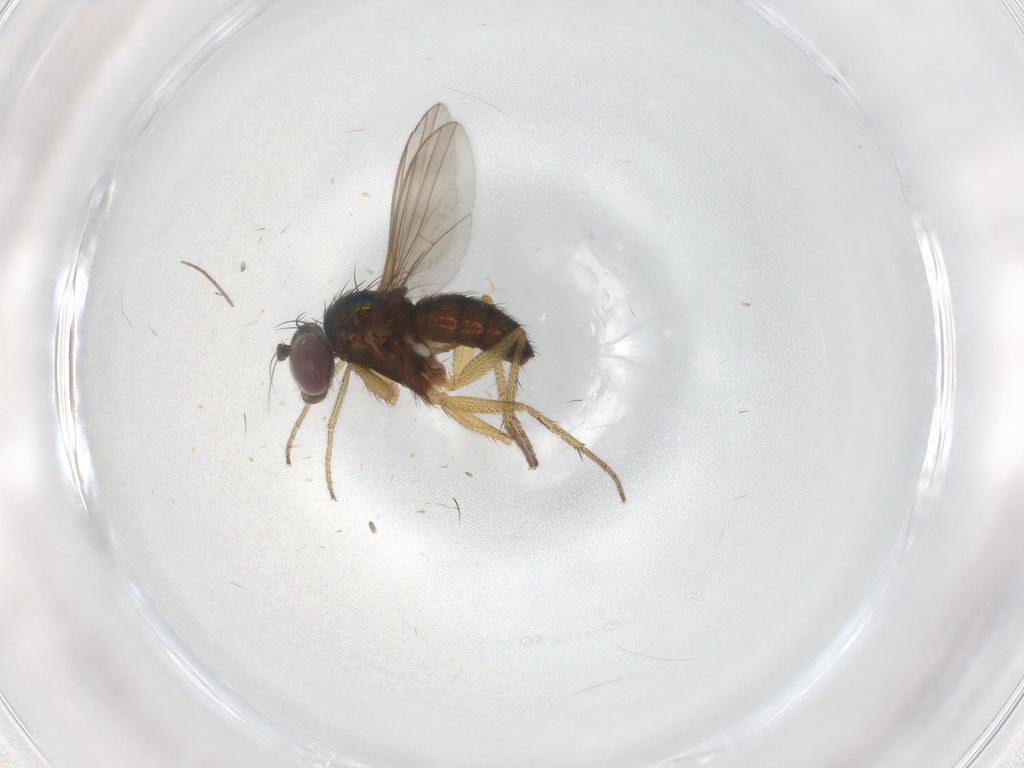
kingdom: Animalia
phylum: Arthropoda
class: Insecta
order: Diptera
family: Dolichopodidae
